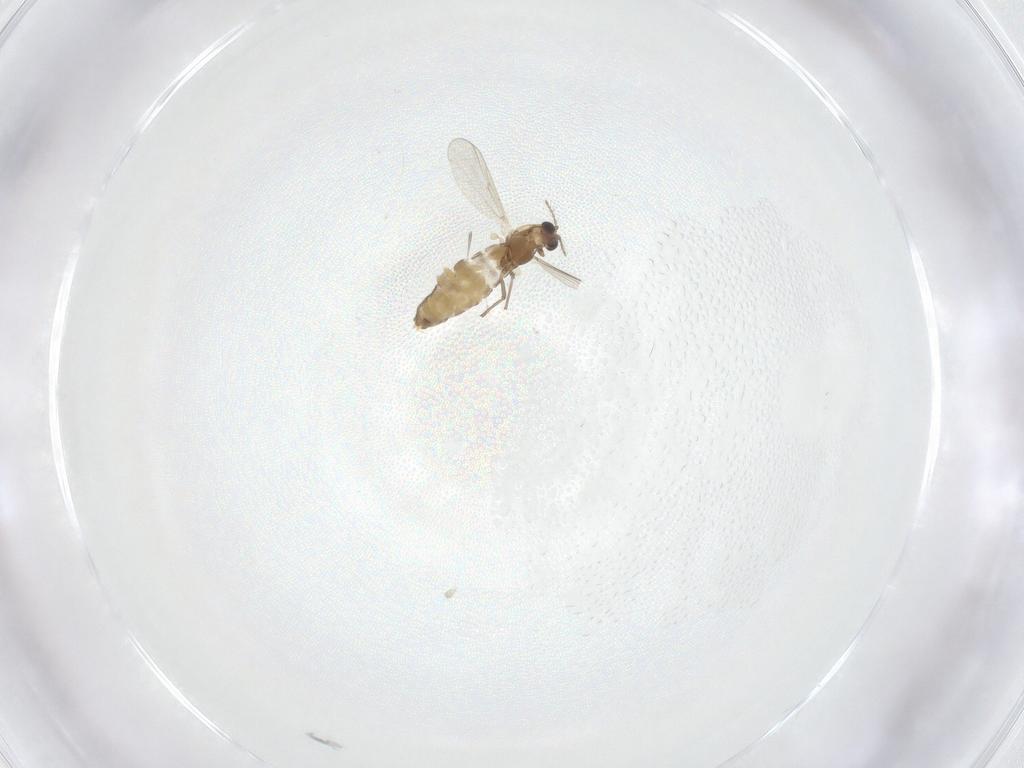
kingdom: Animalia
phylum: Arthropoda
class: Insecta
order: Diptera
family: Chironomidae
